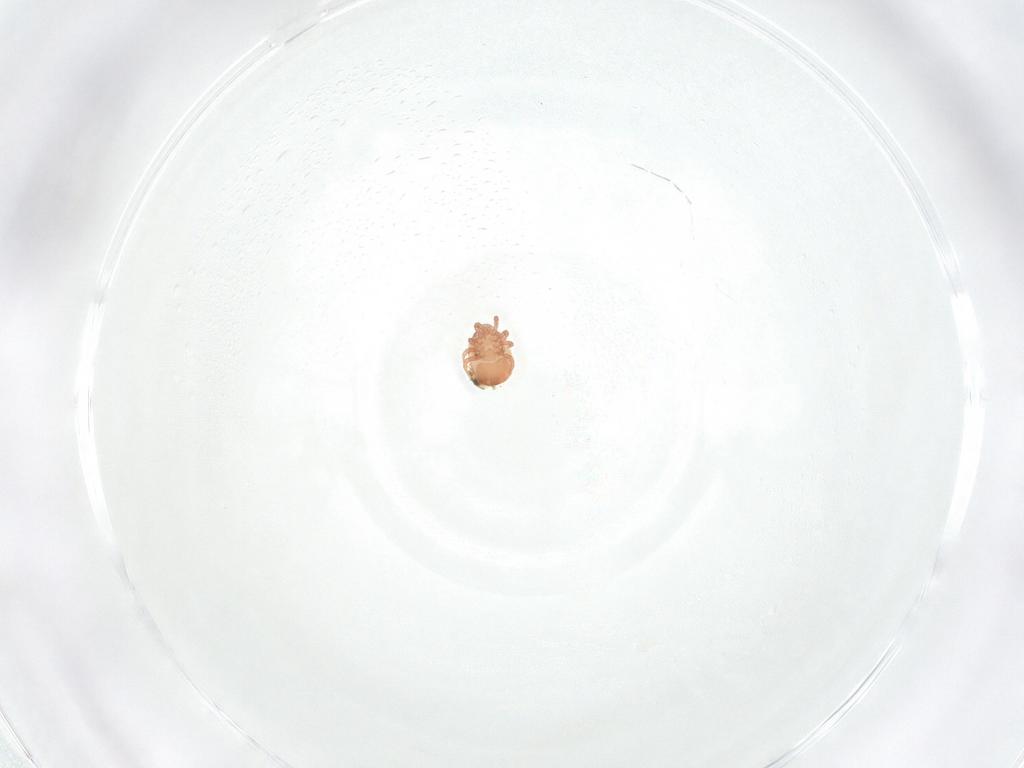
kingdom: Animalia
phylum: Arthropoda
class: Arachnida
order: Mesostigmata
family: Zerconidae
